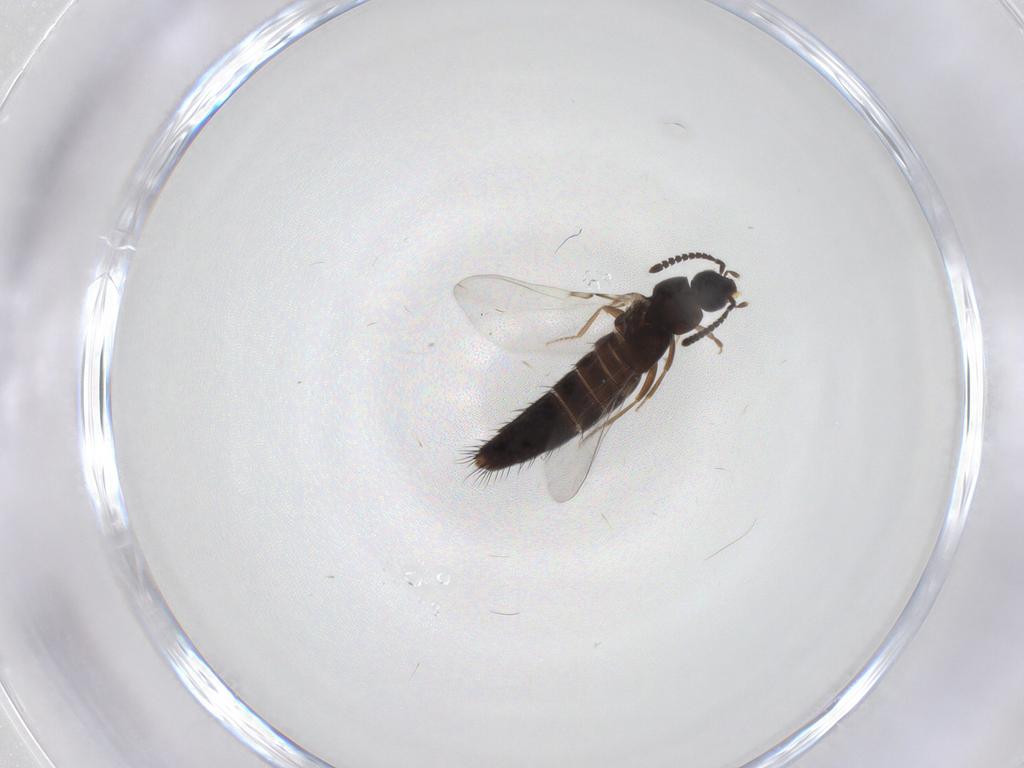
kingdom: Animalia
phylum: Arthropoda
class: Insecta
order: Coleoptera
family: Staphylinidae
